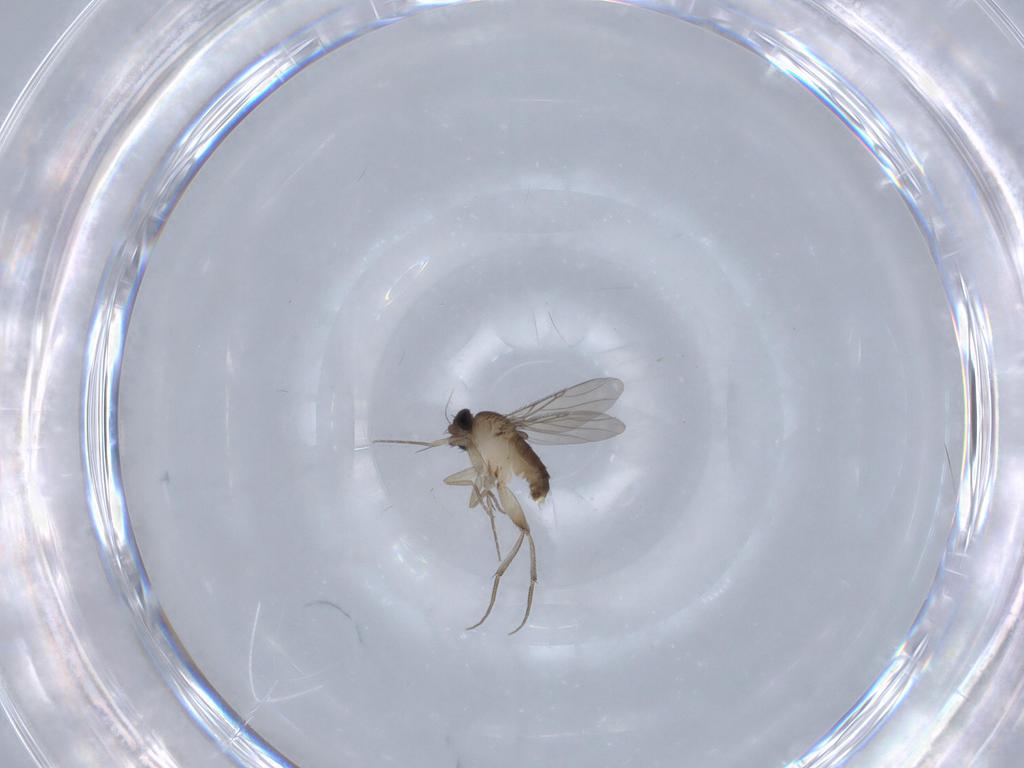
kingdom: Animalia
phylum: Arthropoda
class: Insecta
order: Diptera
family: Phoridae
